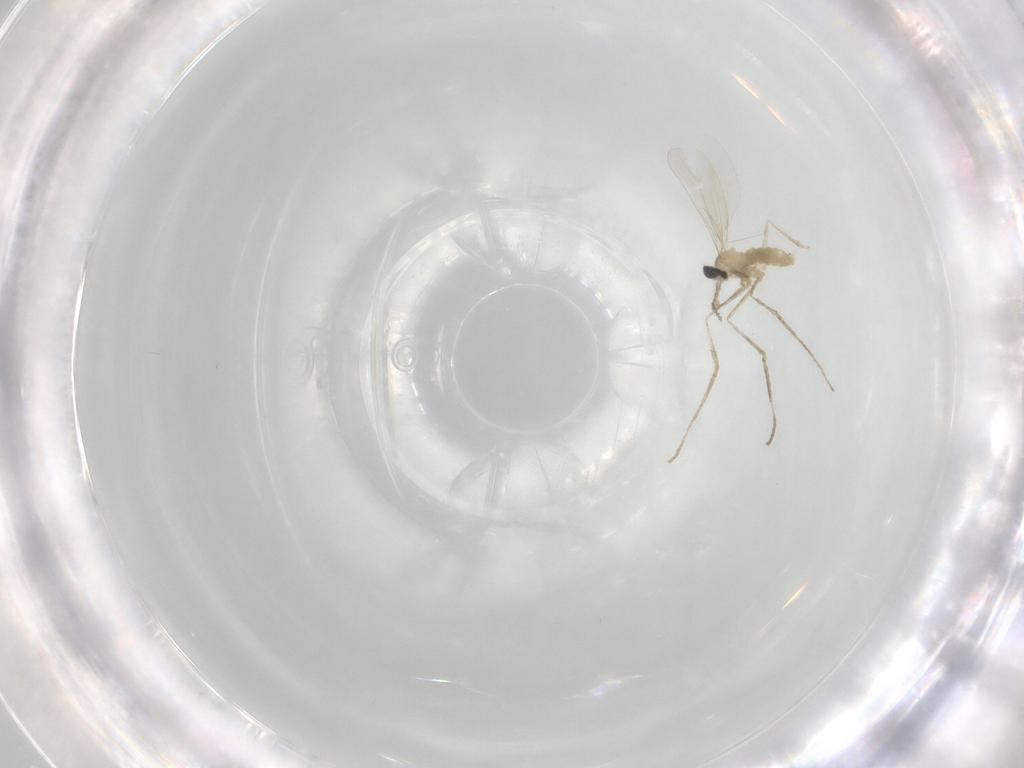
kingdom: Animalia
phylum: Arthropoda
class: Insecta
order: Diptera
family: Tabanidae
